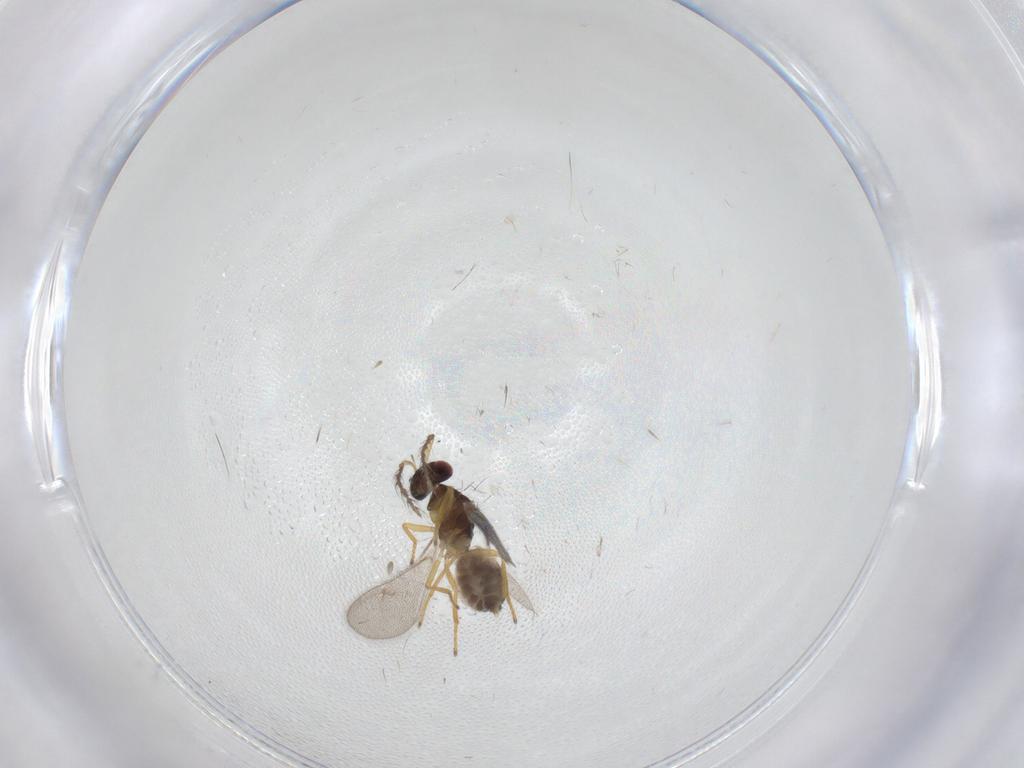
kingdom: Animalia
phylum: Arthropoda
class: Insecta
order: Hymenoptera
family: Eulophidae
